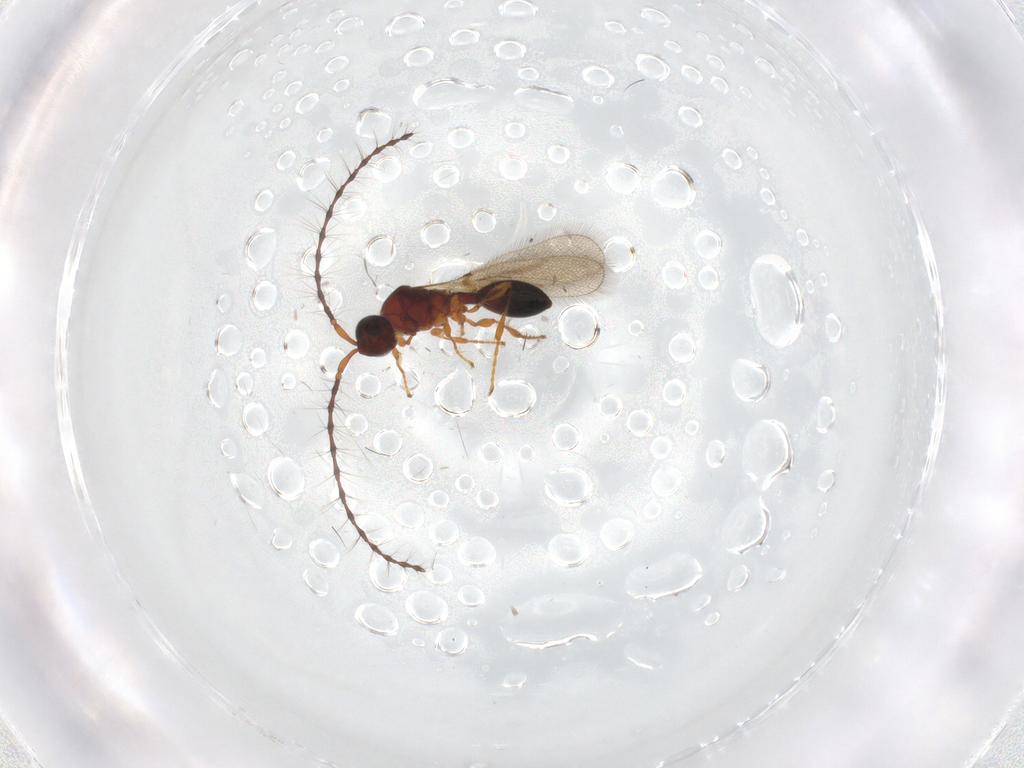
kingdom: Animalia
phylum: Arthropoda
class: Insecta
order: Hymenoptera
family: Diapriidae
